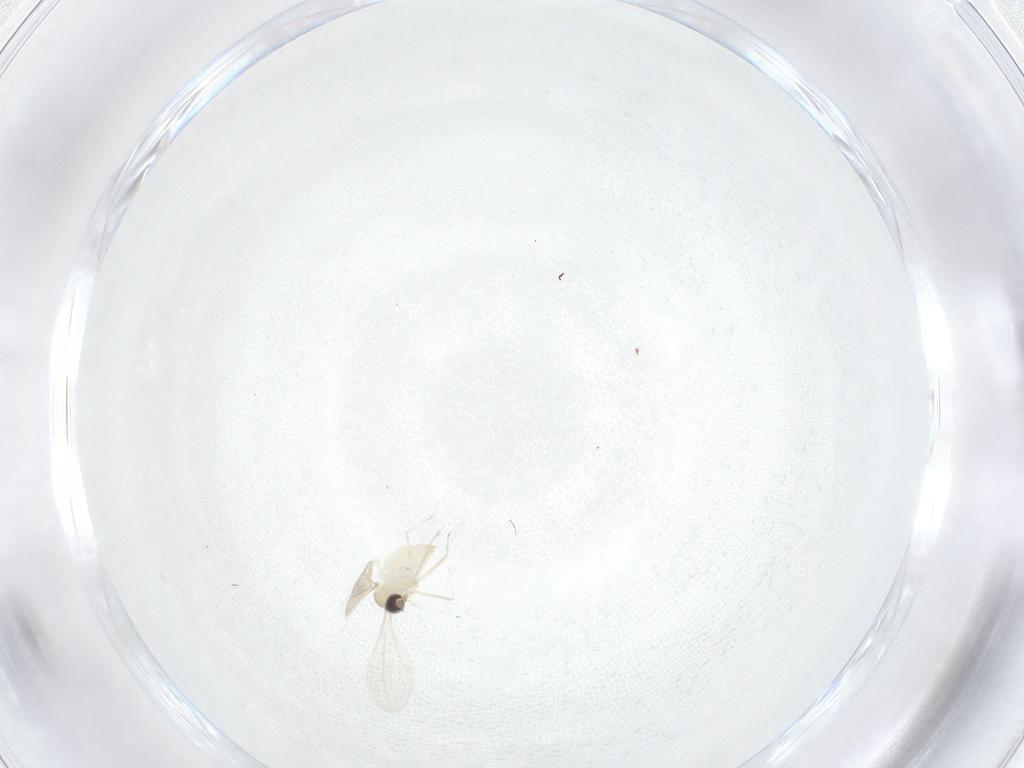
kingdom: Animalia
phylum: Arthropoda
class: Insecta
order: Diptera
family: Cecidomyiidae
